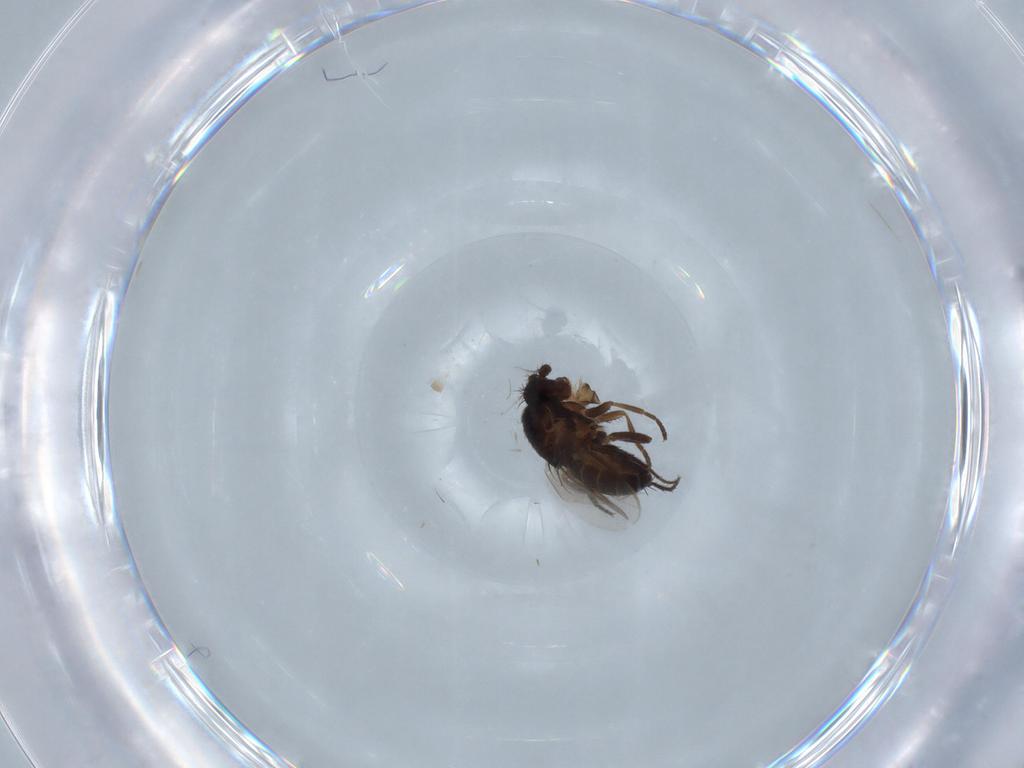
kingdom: Animalia
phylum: Arthropoda
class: Insecta
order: Diptera
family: Sphaeroceridae
